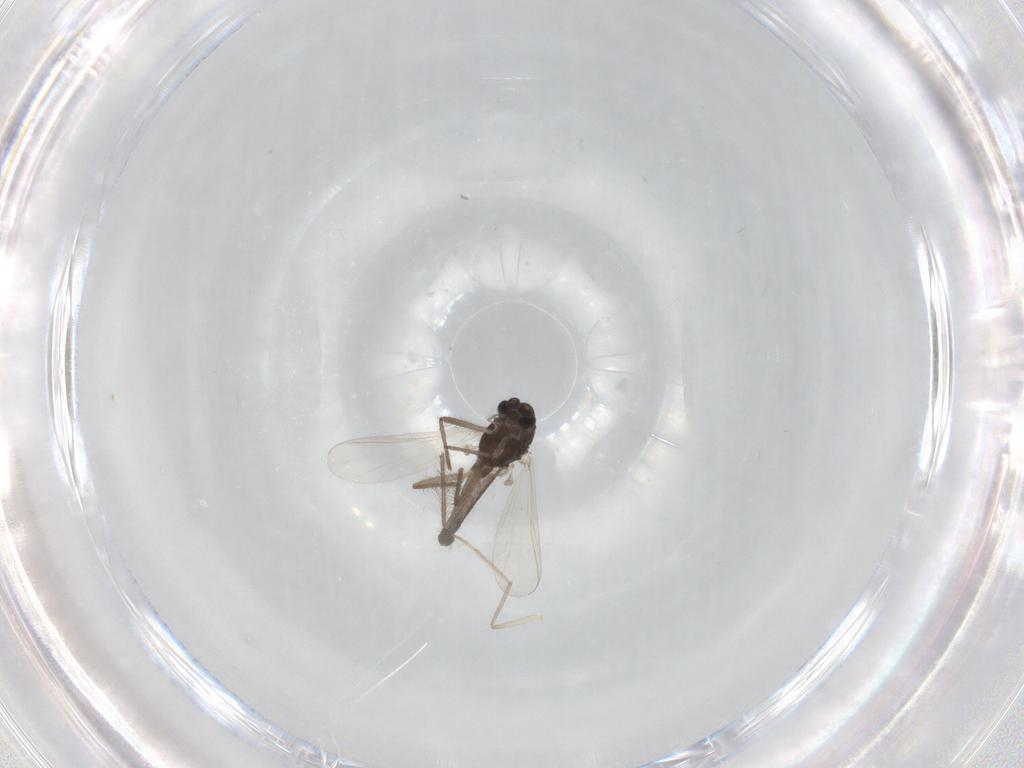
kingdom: Animalia
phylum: Arthropoda
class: Insecta
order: Diptera
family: Chironomidae
